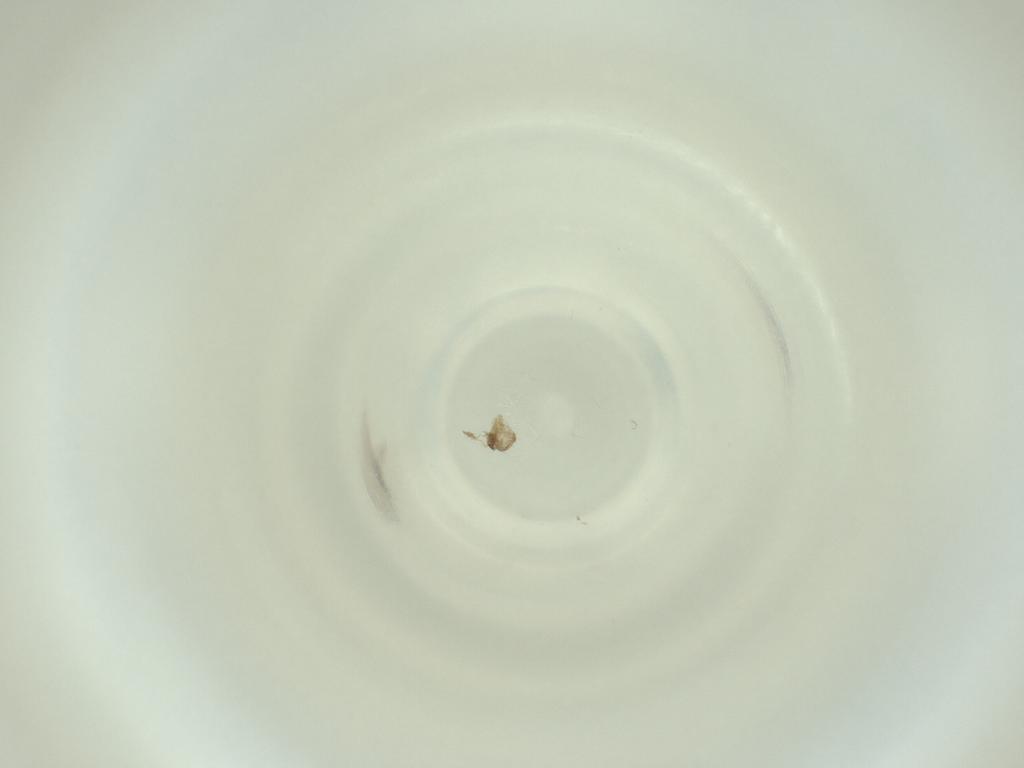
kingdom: Animalia
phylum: Arthropoda
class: Insecta
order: Diptera
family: Cecidomyiidae
